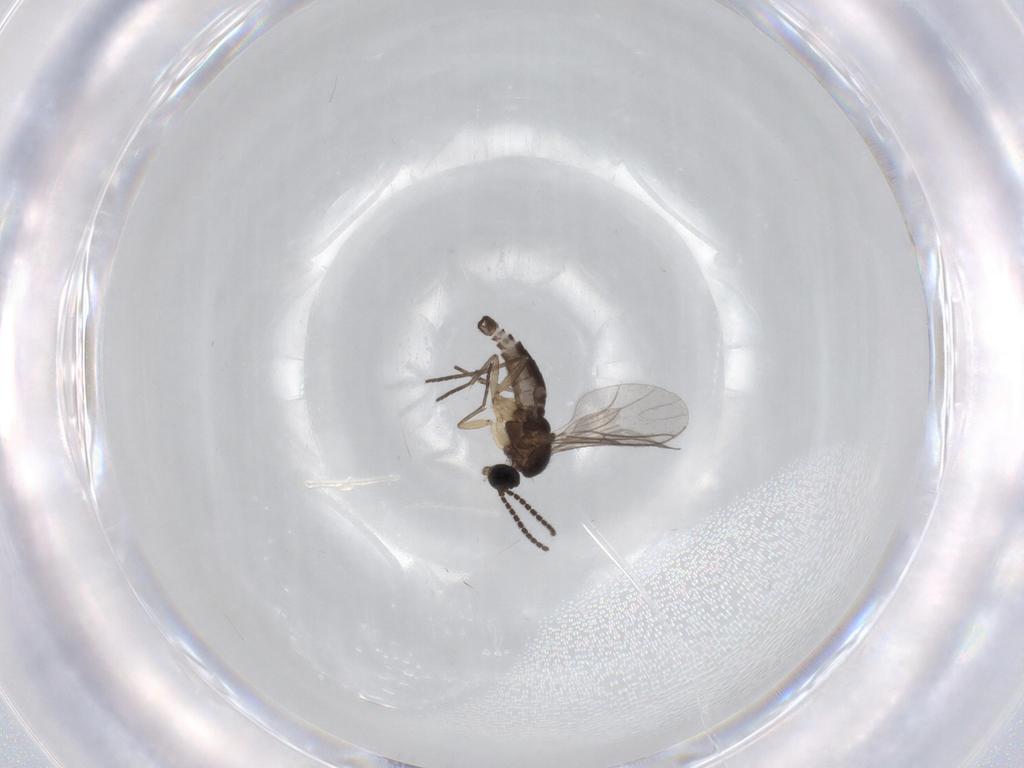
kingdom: Animalia
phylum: Arthropoda
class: Insecta
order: Diptera
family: Sciaridae
